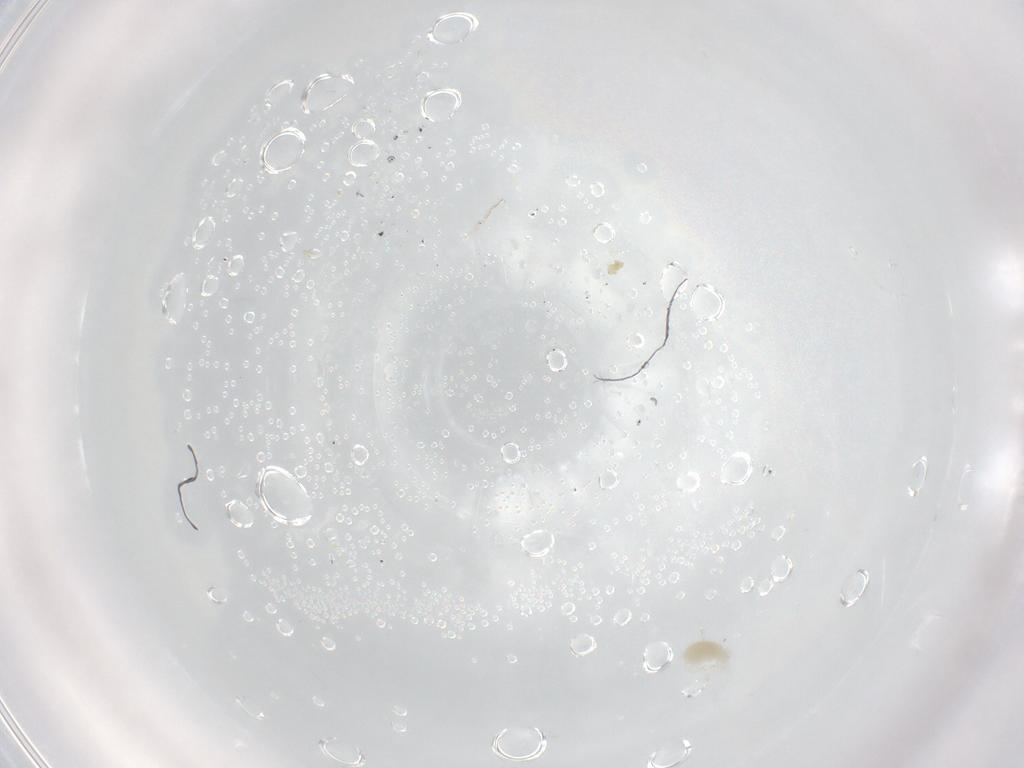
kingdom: Animalia
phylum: Arthropoda
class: Arachnida
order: Trombidiformes
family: Eupodidae
